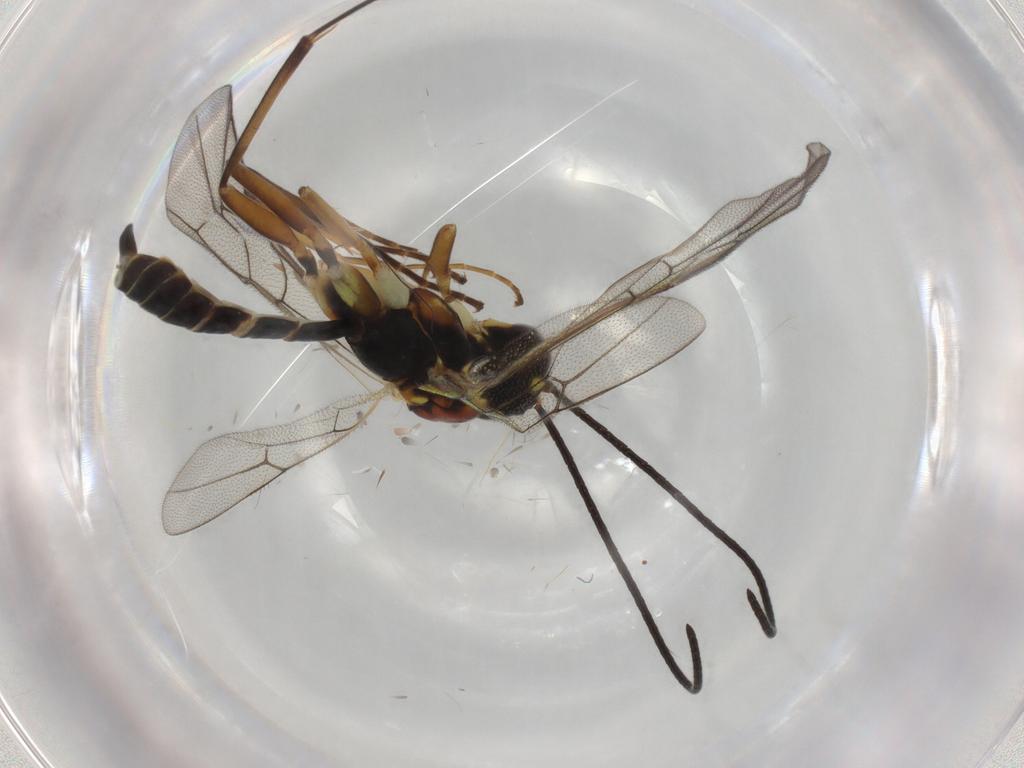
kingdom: Animalia
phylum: Arthropoda
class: Insecta
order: Hymenoptera
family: Ichneumonidae
